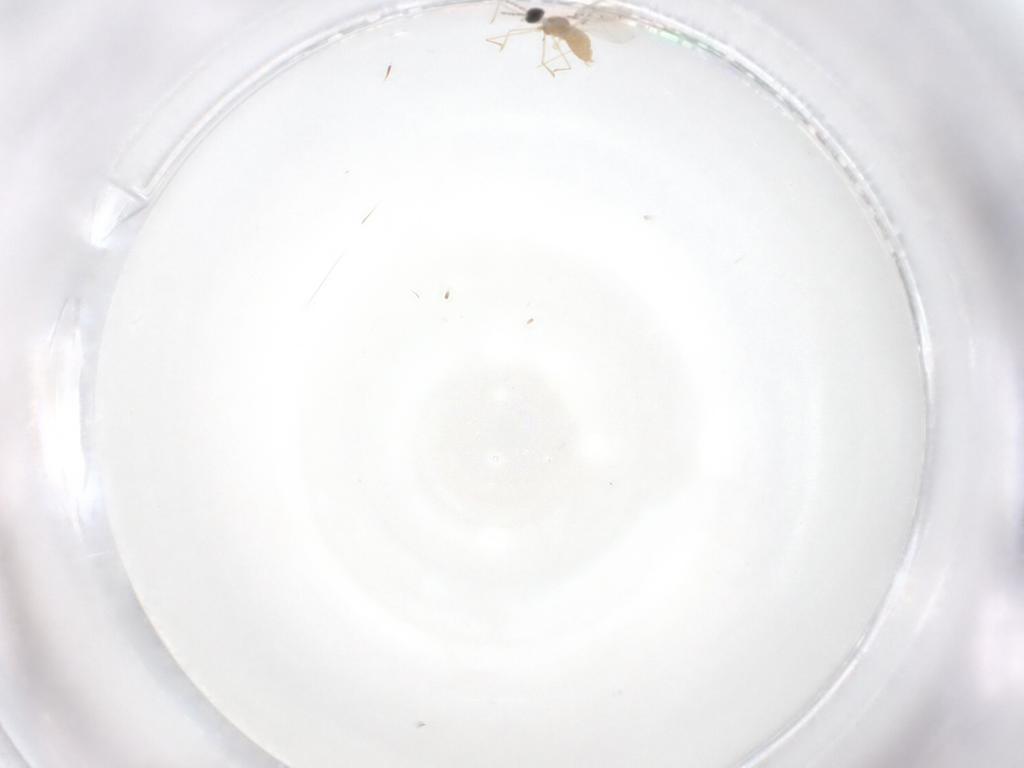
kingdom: Animalia
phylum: Arthropoda
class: Insecta
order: Diptera
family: Cecidomyiidae
